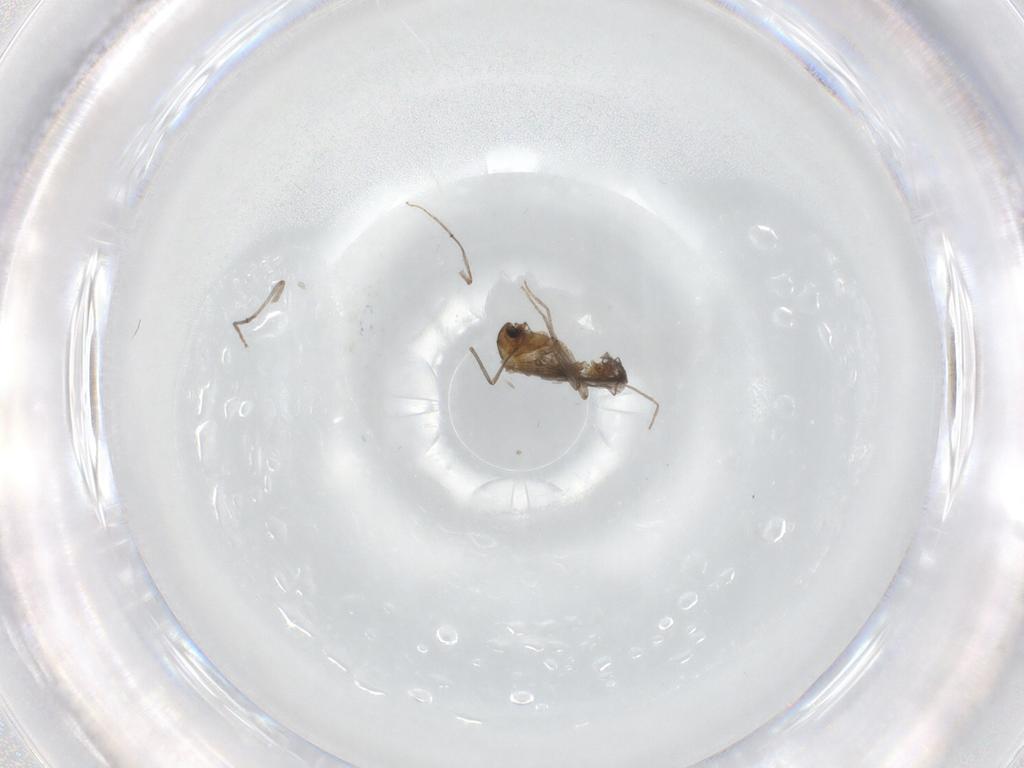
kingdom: Animalia
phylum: Arthropoda
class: Insecta
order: Diptera
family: Chironomidae
